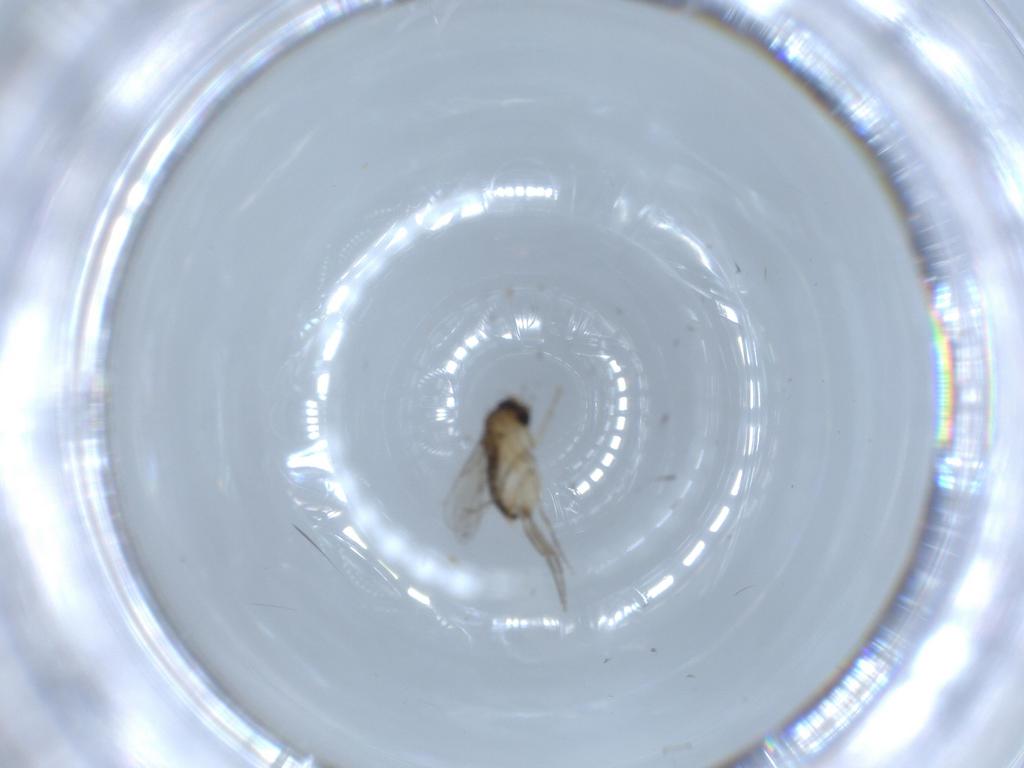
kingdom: Animalia
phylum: Arthropoda
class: Insecta
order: Diptera
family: Phoridae
